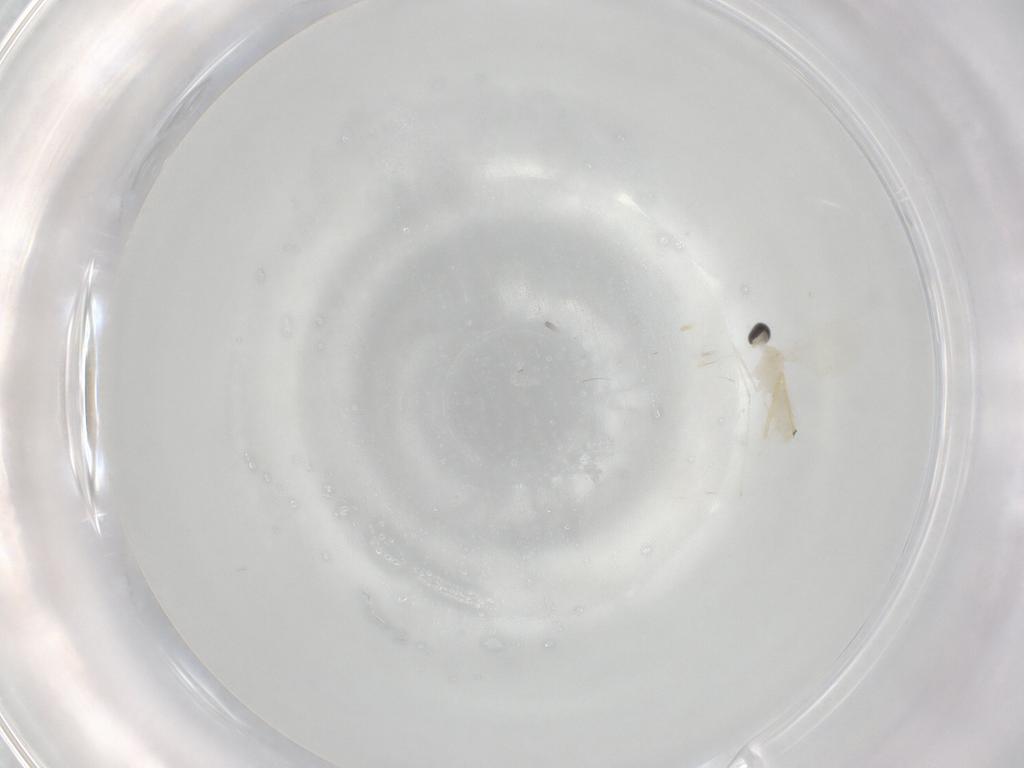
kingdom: Animalia
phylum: Arthropoda
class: Insecta
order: Diptera
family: Cecidomyiidae
